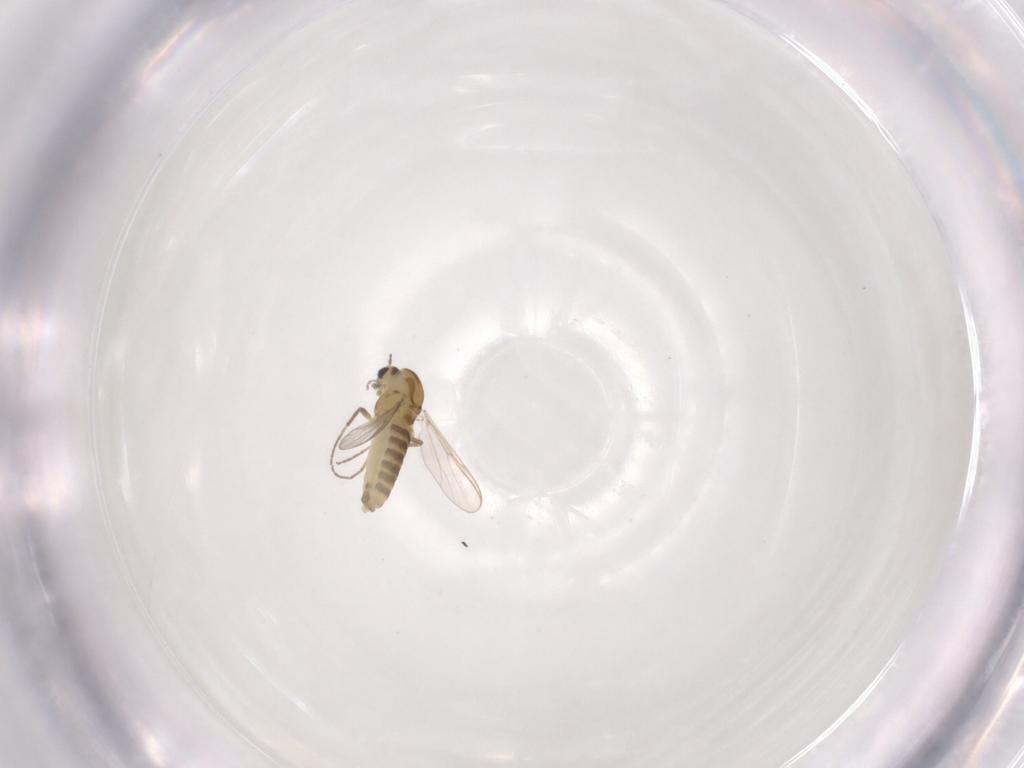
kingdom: Animalia
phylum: Arthropoda
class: Insecta
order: Diptera
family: Chironomidae
